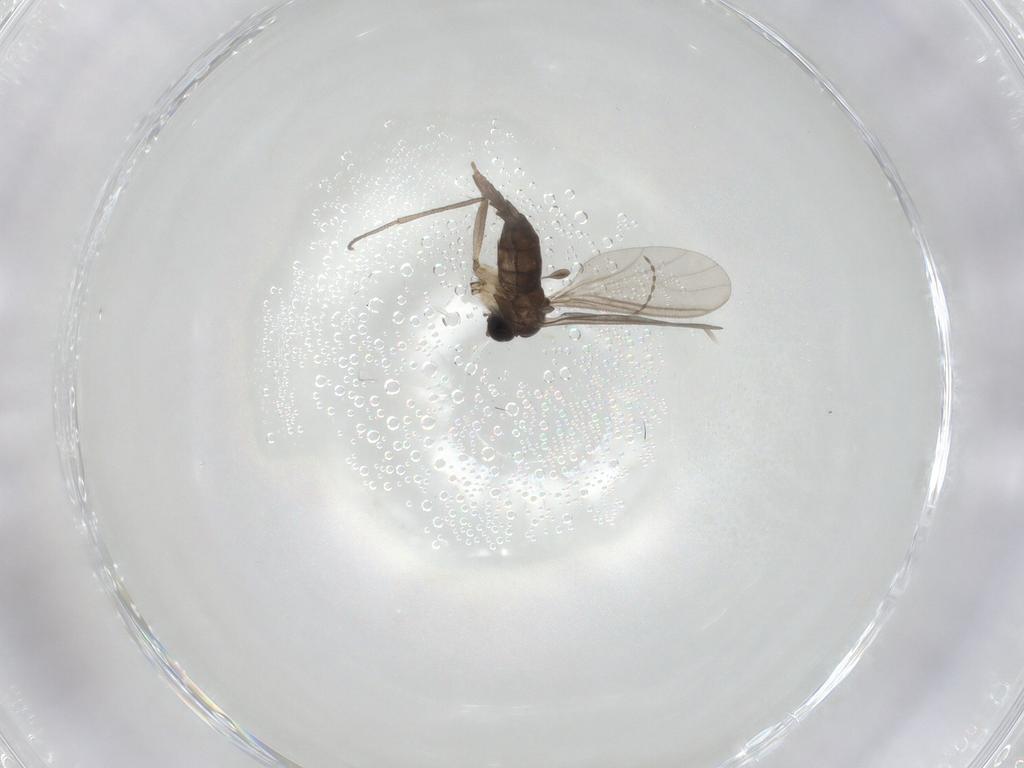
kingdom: Animalia
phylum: Arthropoda
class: Insecta
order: Diptera
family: Sciaridae
